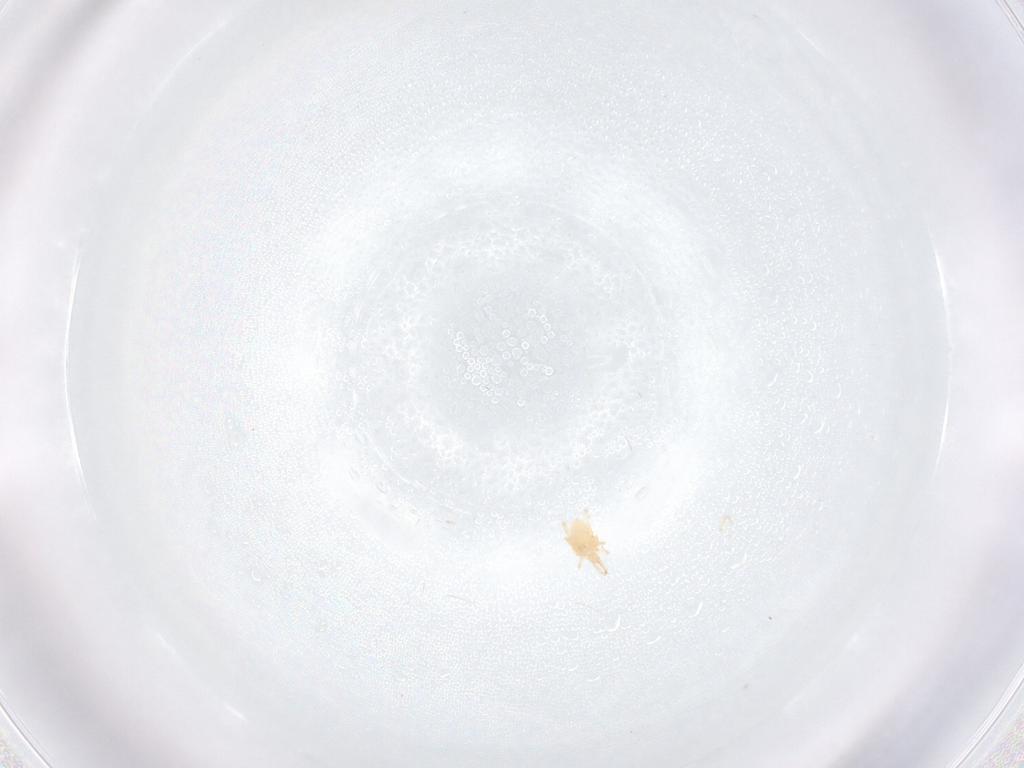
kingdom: Animalia
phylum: Arthropoda
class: Arachnida
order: Trombidiformes
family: Cunaxidae
